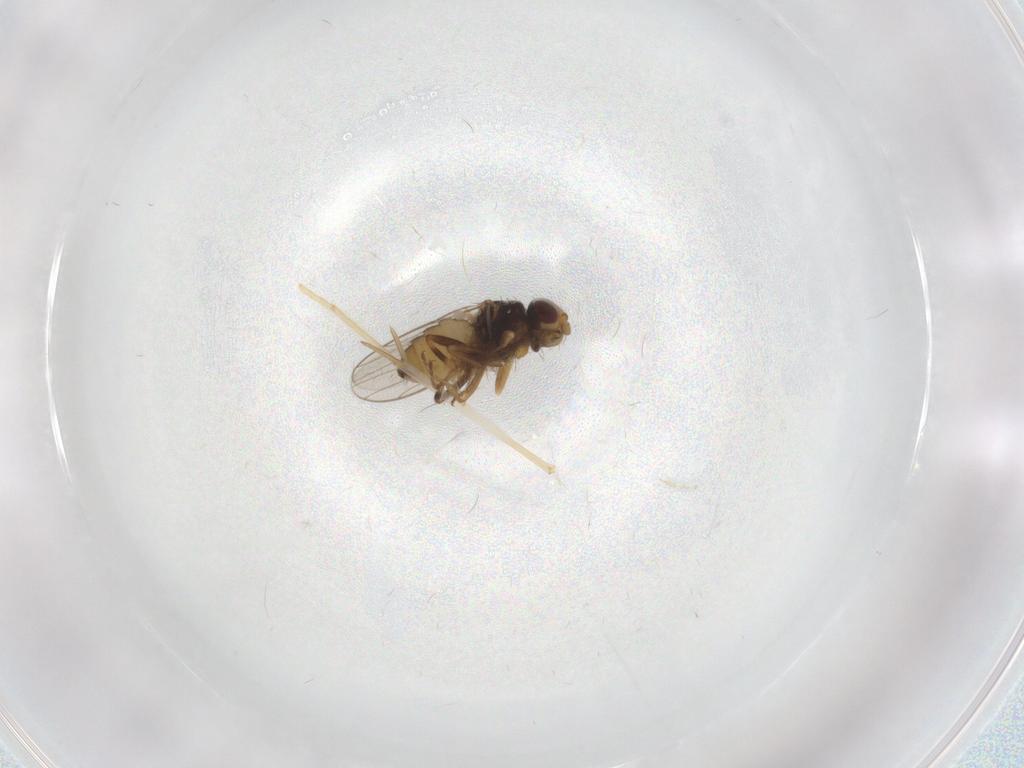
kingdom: Animalia
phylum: Arthropoda
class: Insecta
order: Diptera
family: Chloropidae
